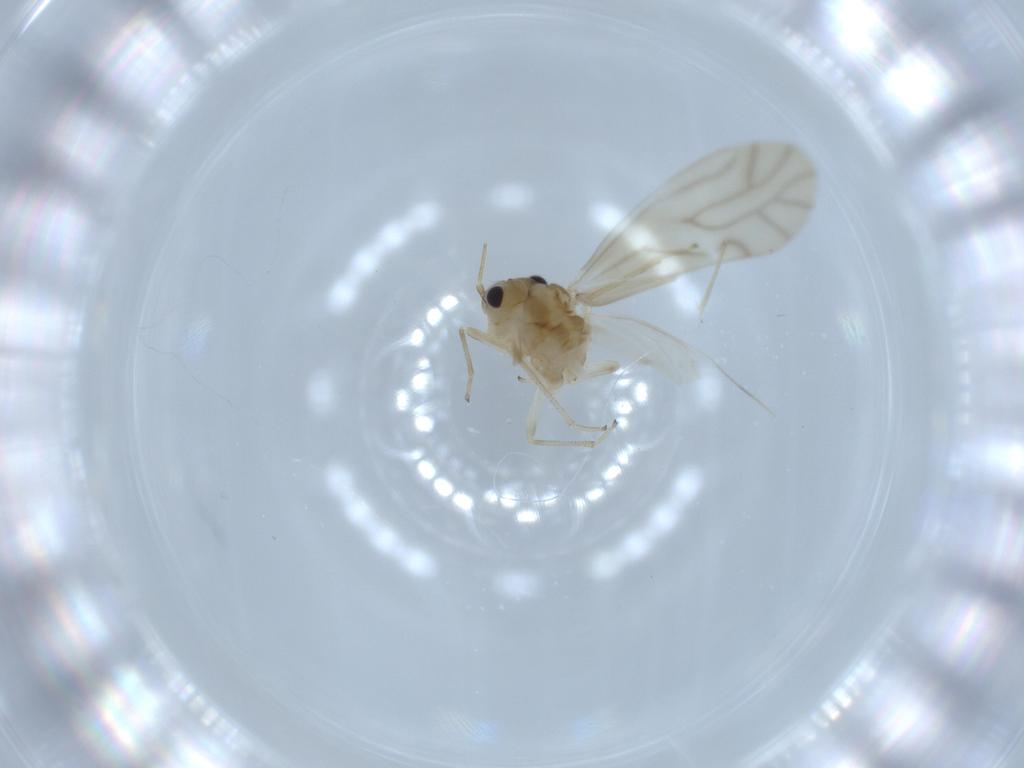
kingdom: Animalia
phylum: Arthropoda
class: Insecta
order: Psocodea
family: Caeciliusidae
